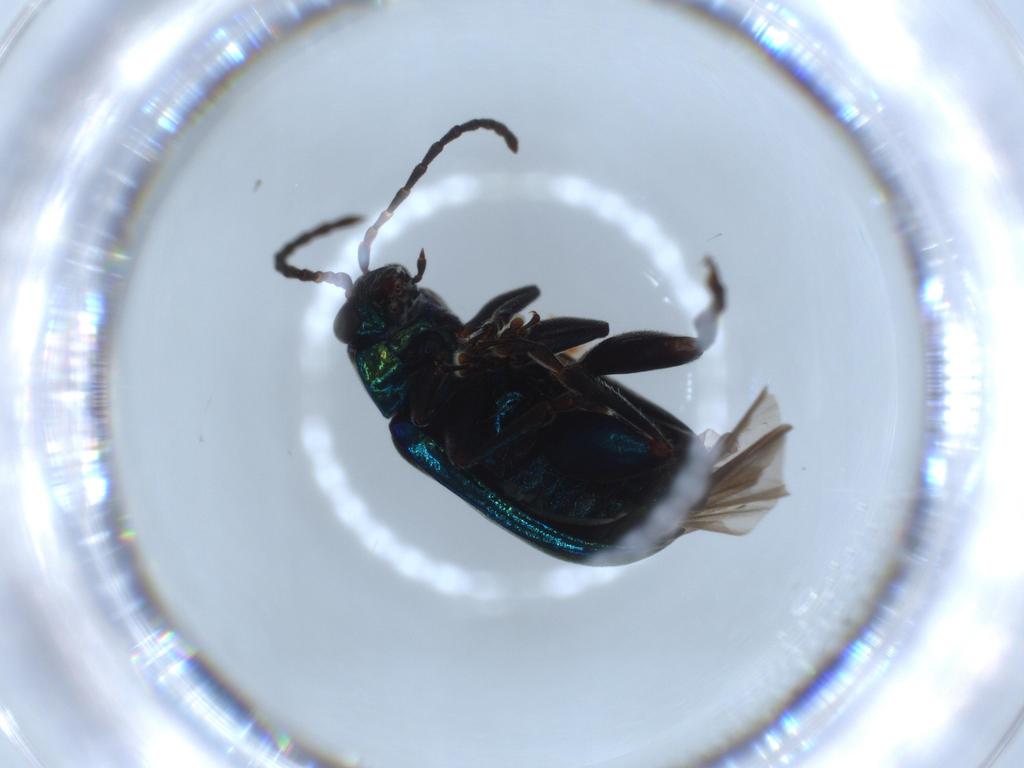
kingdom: Animalia
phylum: Arthropoda
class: Insecta
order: Coleoptera
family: Chrysomelidae
